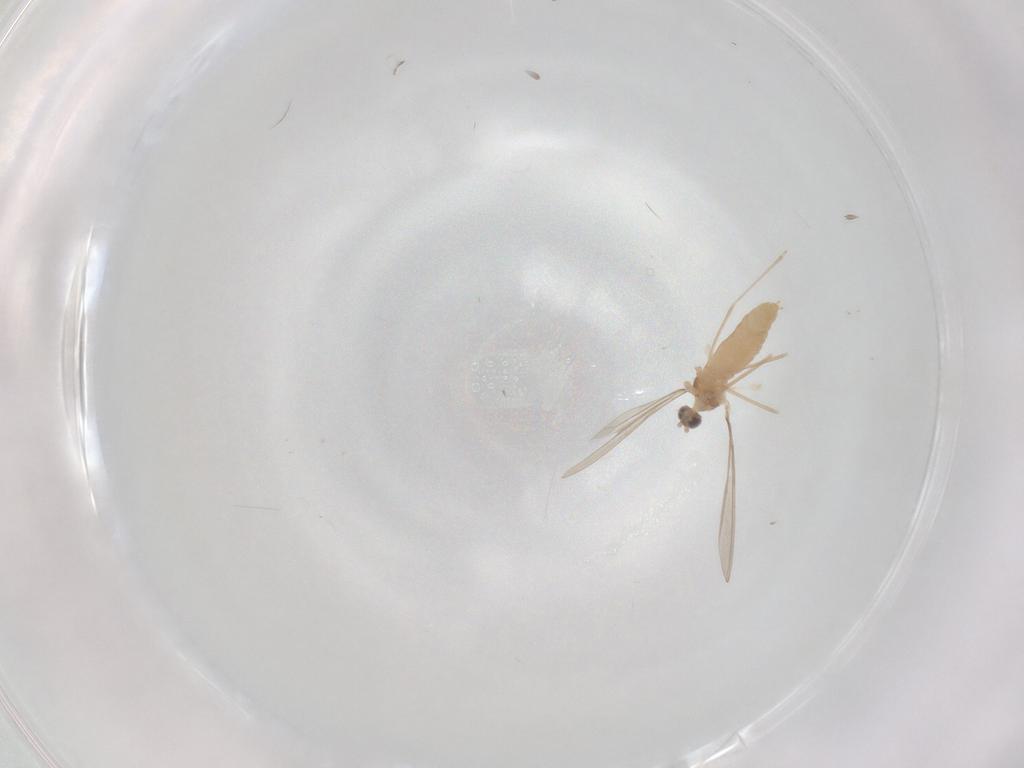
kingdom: Animalia
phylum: Arthropoda
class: Insecta
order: Diptera
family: Cecidomyiidae
